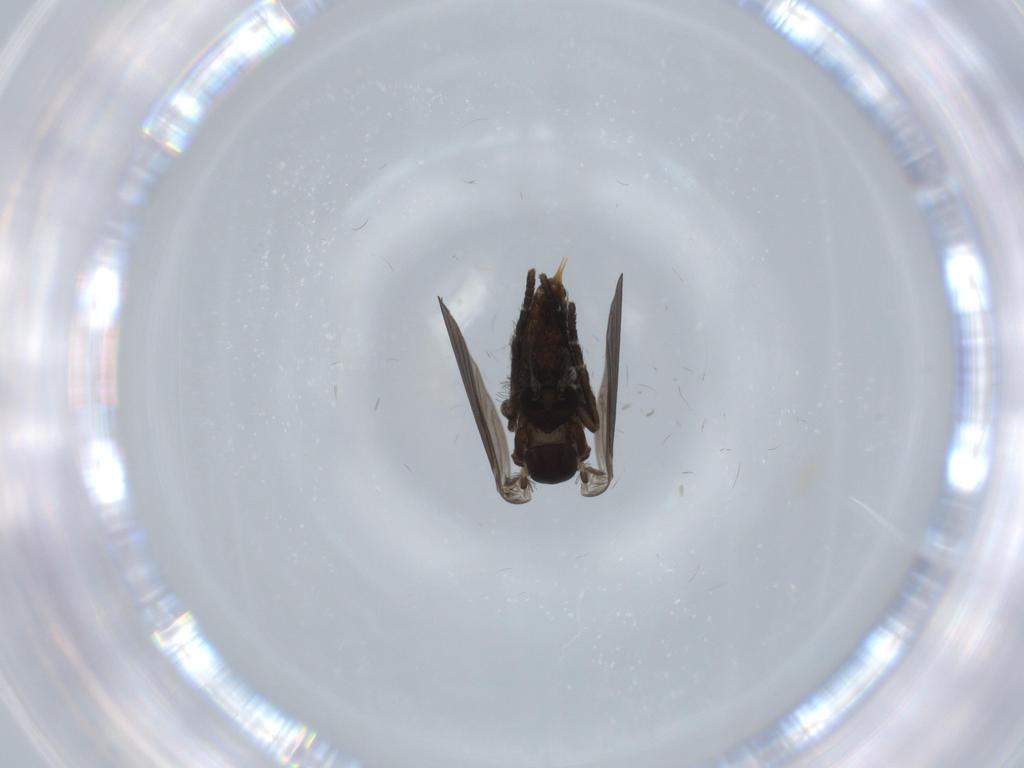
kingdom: Animalia
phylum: Arthropoda
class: Insecta
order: Diptera
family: Psychodidae
